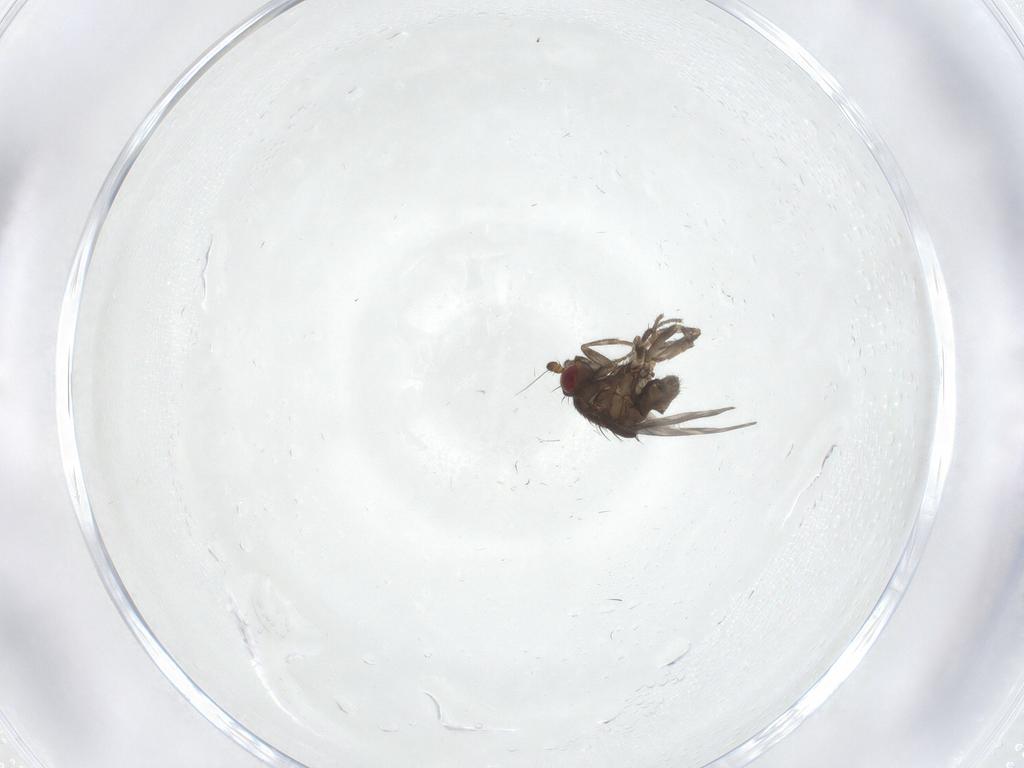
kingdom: Animalia
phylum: Arthropoda
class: Insecta
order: Diptera
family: Sphaeroceridae
